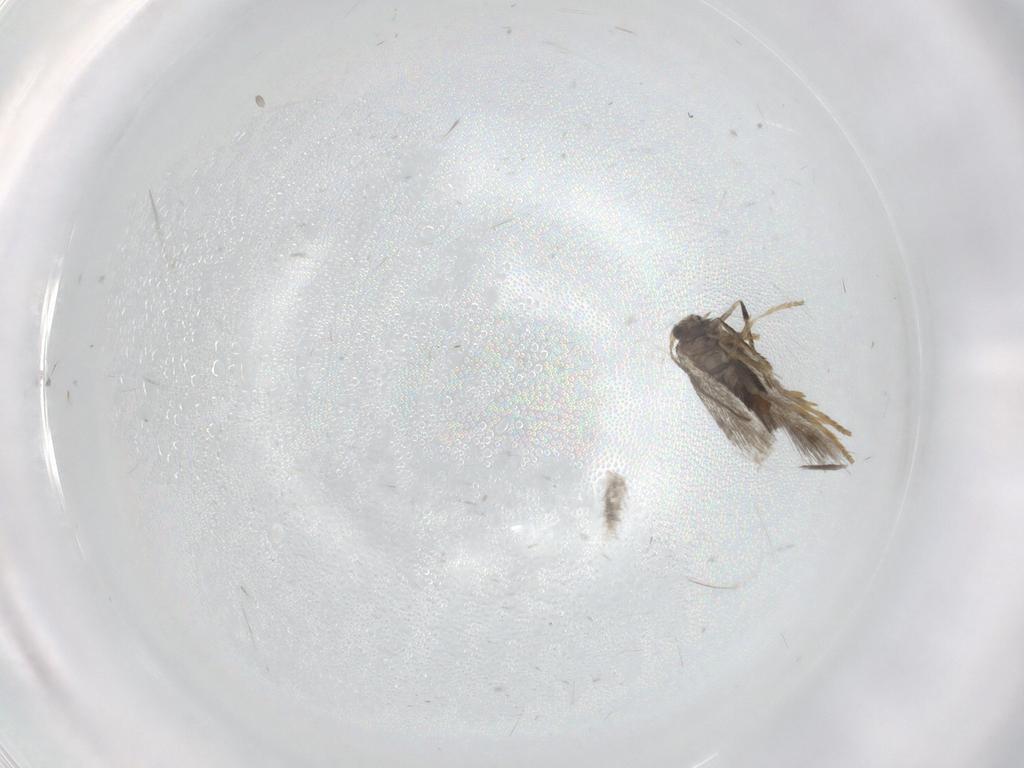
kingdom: Animalia
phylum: Arthropoda
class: Insecta
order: Lepidoptera
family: Nepticulidae
